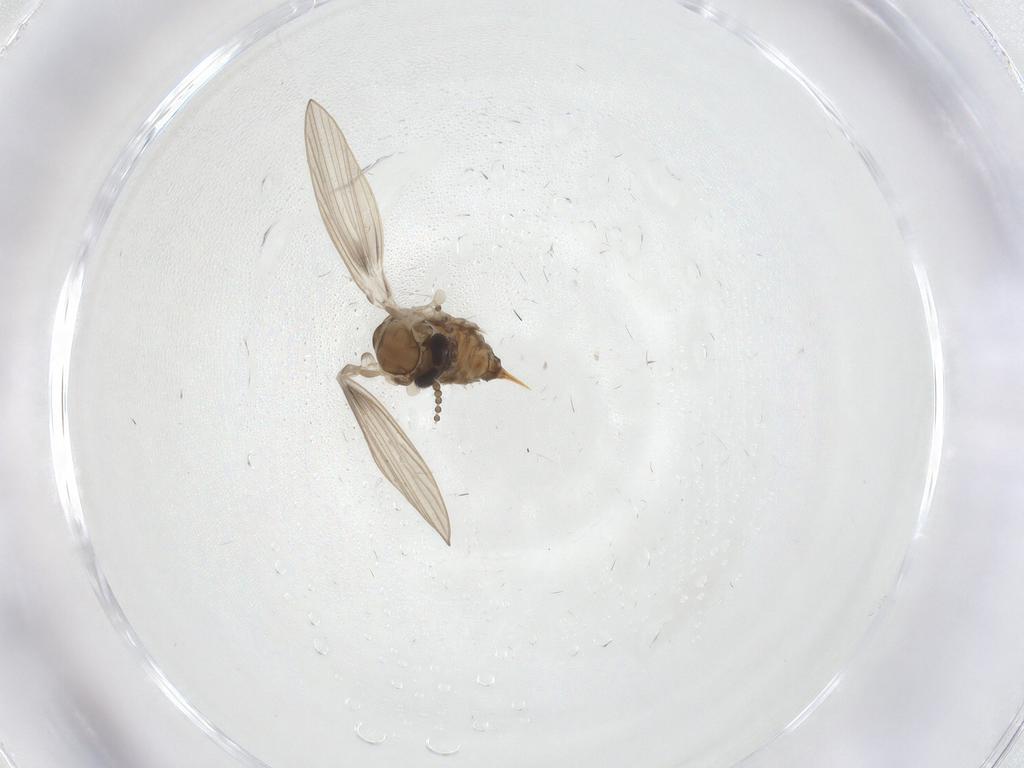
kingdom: Animalia
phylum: Arthropoda
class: Insecta
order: Diptera
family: Psychodidae
